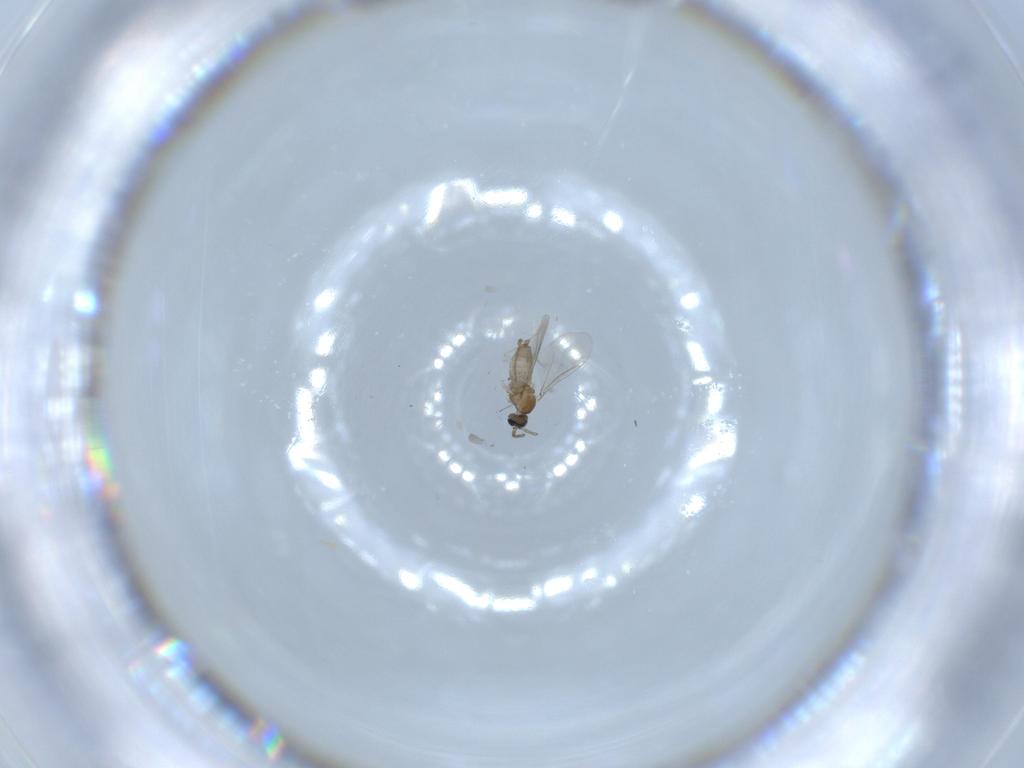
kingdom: Animalia
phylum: Arthropoda
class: Insecta
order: Diptera
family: Cecidomyiidae
